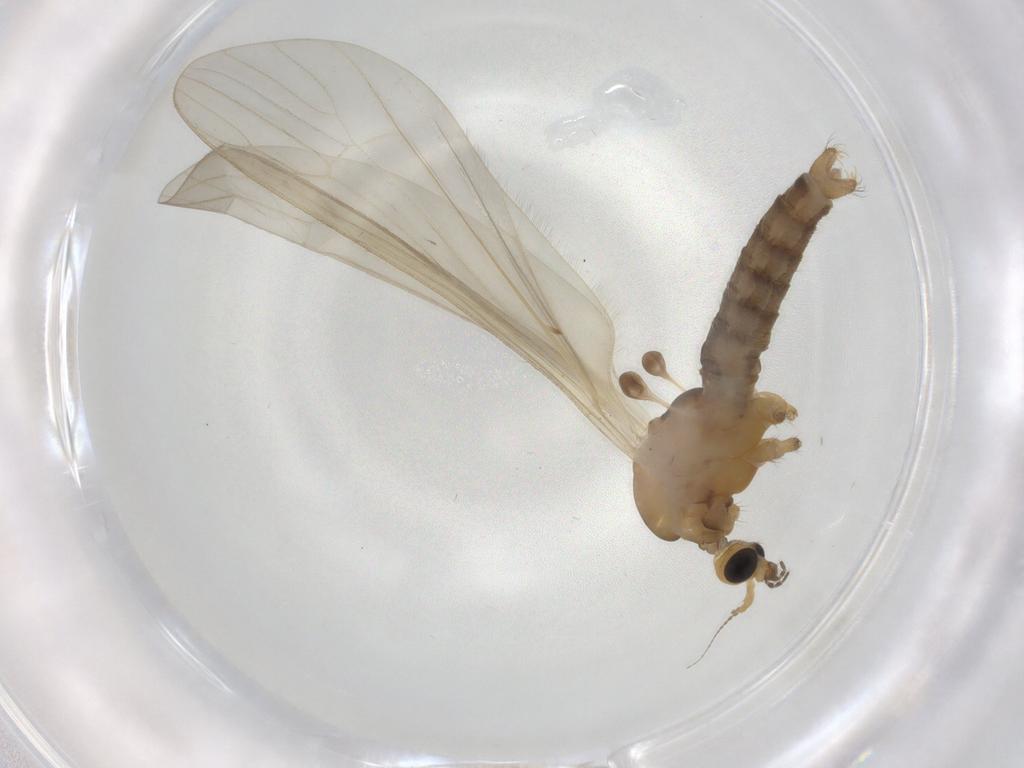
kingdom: Animalia
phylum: Arthropoda
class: Insecta
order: Diptera
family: Limoniidae
